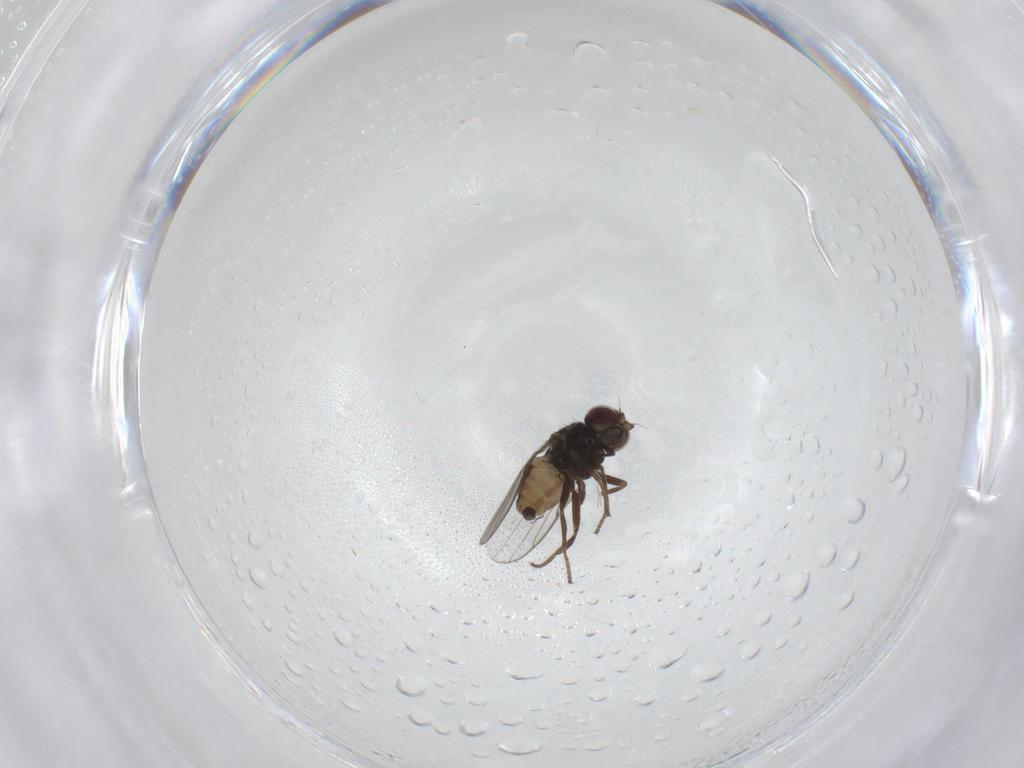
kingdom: Animalia
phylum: Arthropoda
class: Insecta
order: Diptera
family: Chloropidae
